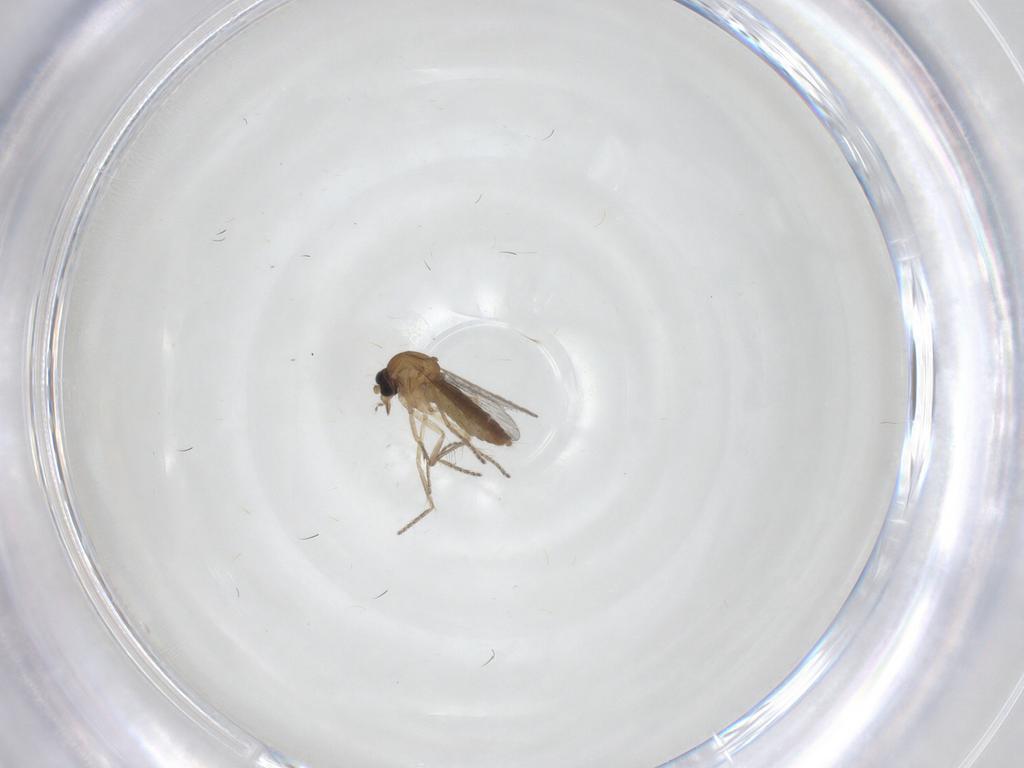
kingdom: Animalia
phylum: Arthropoda
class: Insecta
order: Diptera
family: Ceratopogonidae
